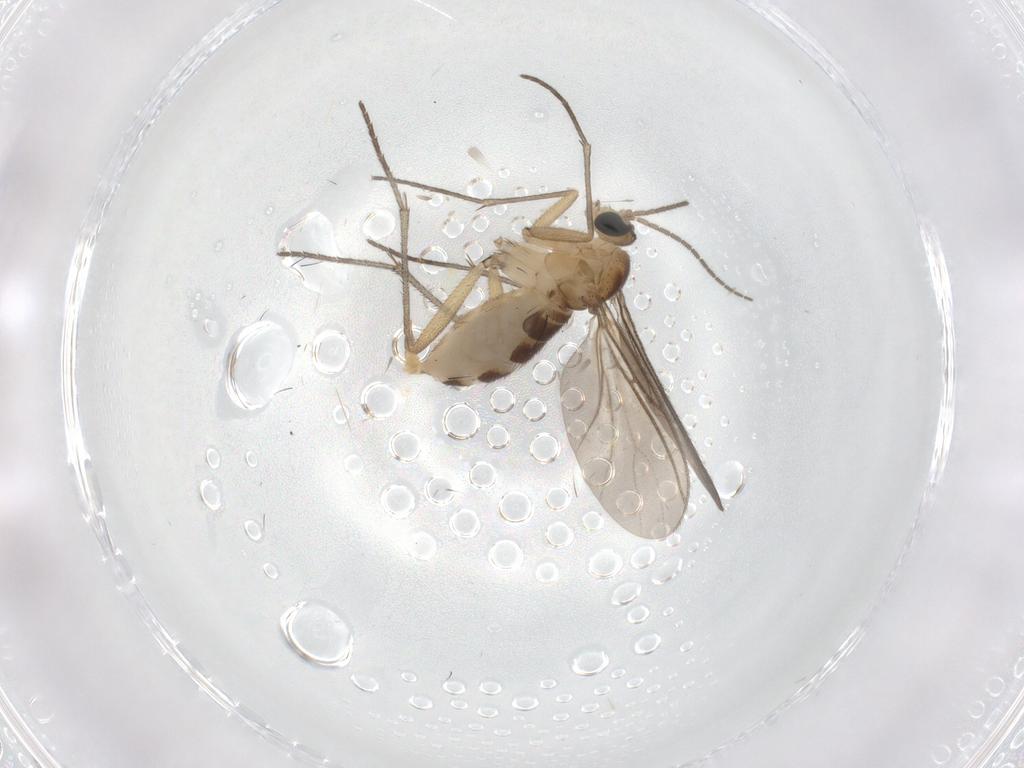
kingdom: Animalia
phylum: Arthropoda
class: Insecta
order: Diptera
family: Sciaridae
